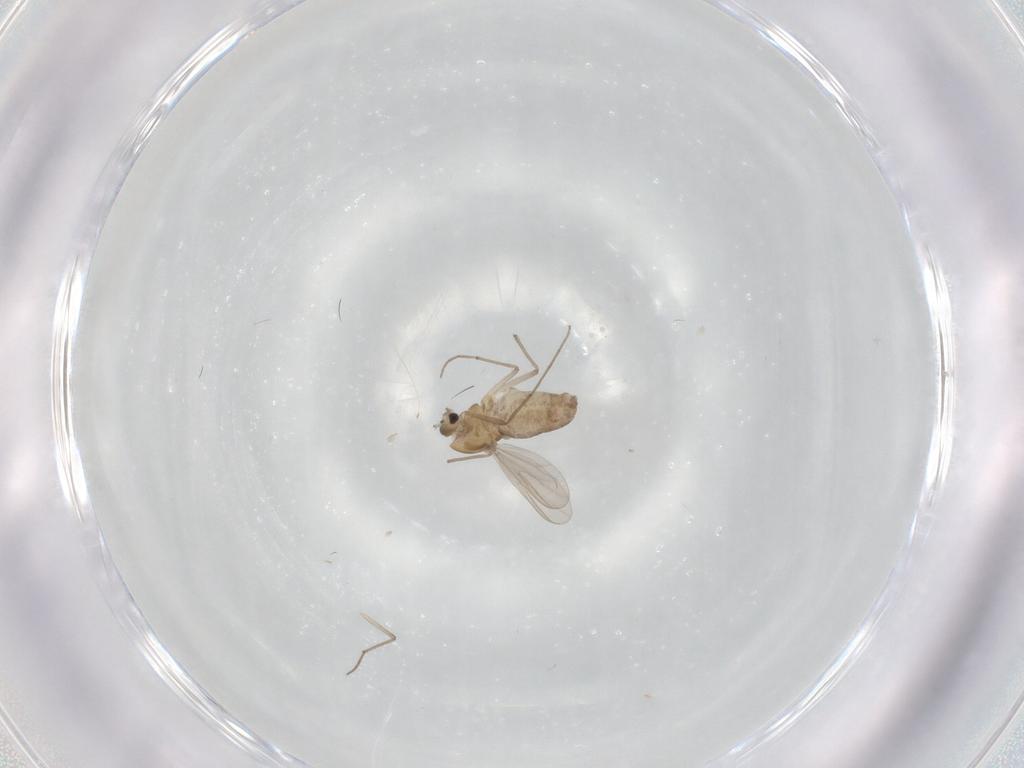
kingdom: Animalia
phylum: Arthropoda
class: Insecta
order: Diptera
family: Chironomidae
